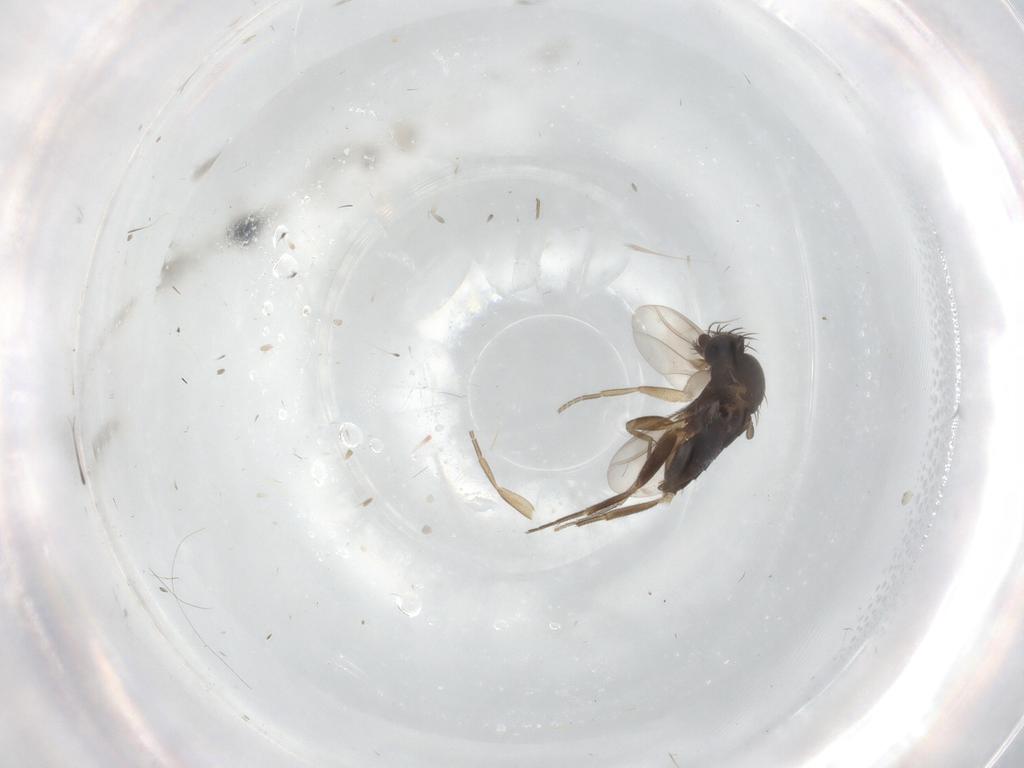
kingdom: Animalia
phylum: Arthropoda
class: Insecta
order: Diptera
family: Phoridae
